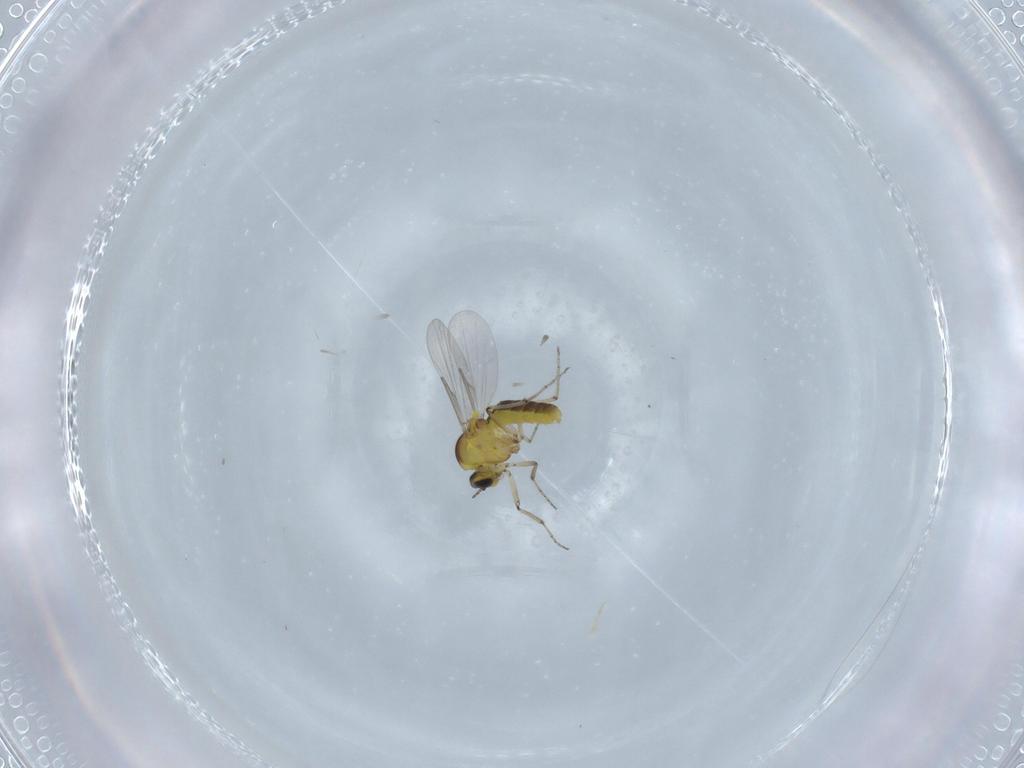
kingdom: Animalia
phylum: Arthropoda
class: Insecta
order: Diptera
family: Ceratopogonidae
